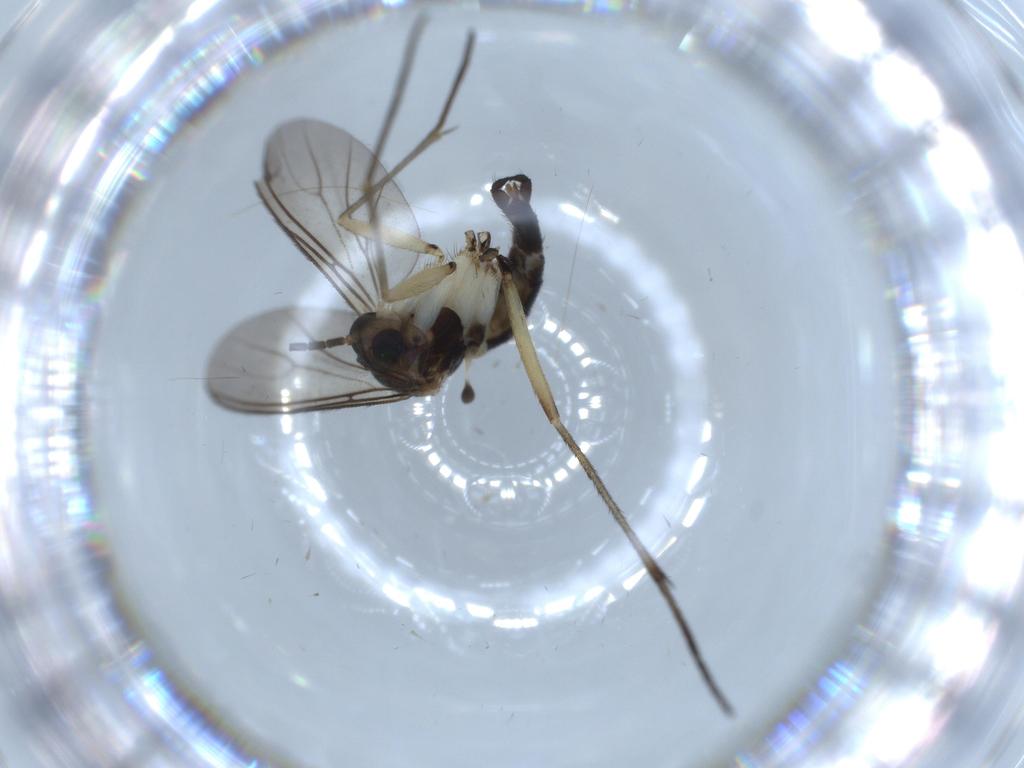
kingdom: Animalia
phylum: Arthropoda
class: Insecta
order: Diptera
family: Sciaridae
